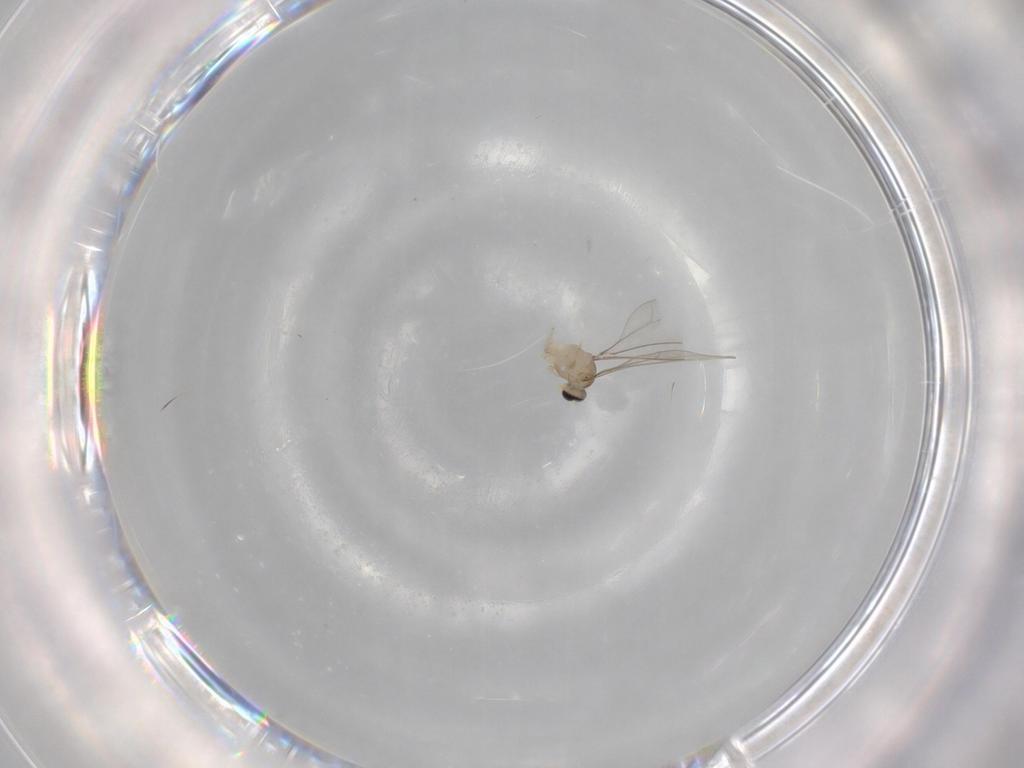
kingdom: Animalia
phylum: Arthropoda
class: Insecta
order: Diptera
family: Cecidomyiidae
